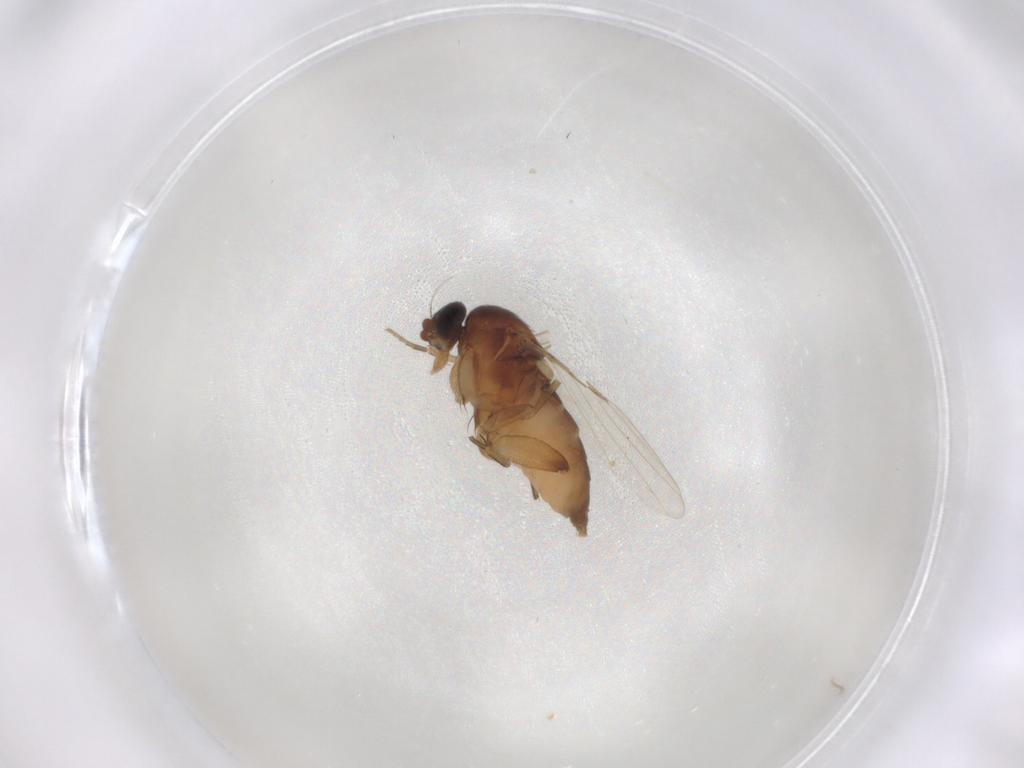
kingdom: Animalia
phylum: Arthropoda
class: Insecta
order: Diptera
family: Phoridae
